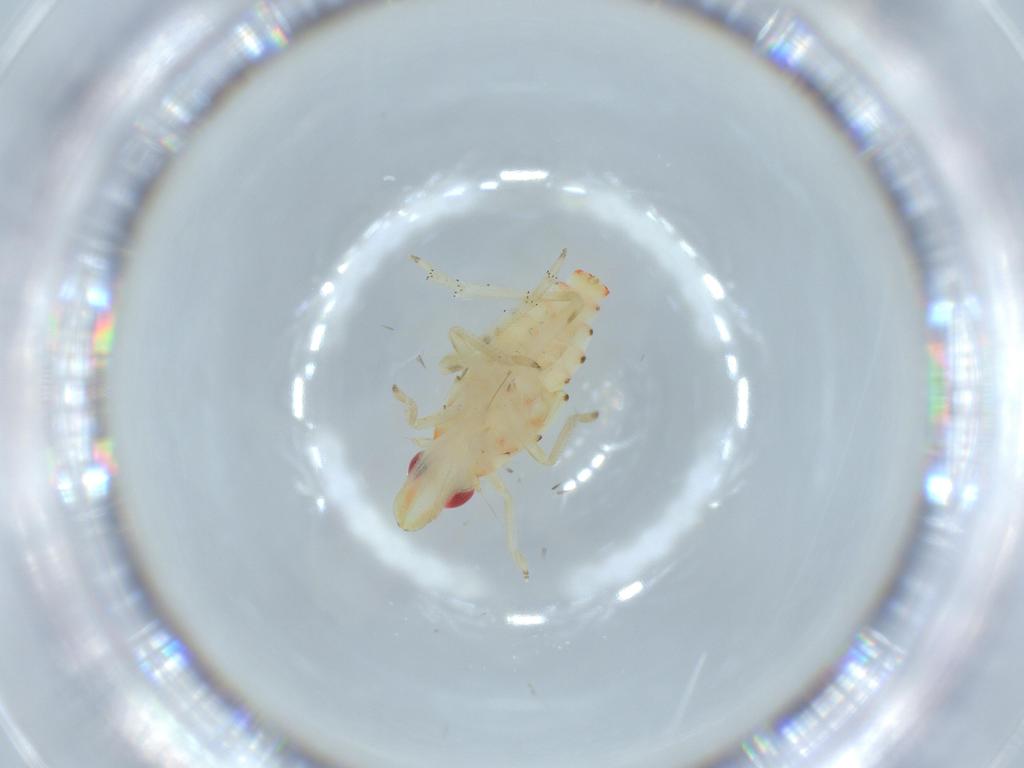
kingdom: Animalia
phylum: Arthropoda
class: Insecta
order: Hemiptera
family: Tropiduchidae
